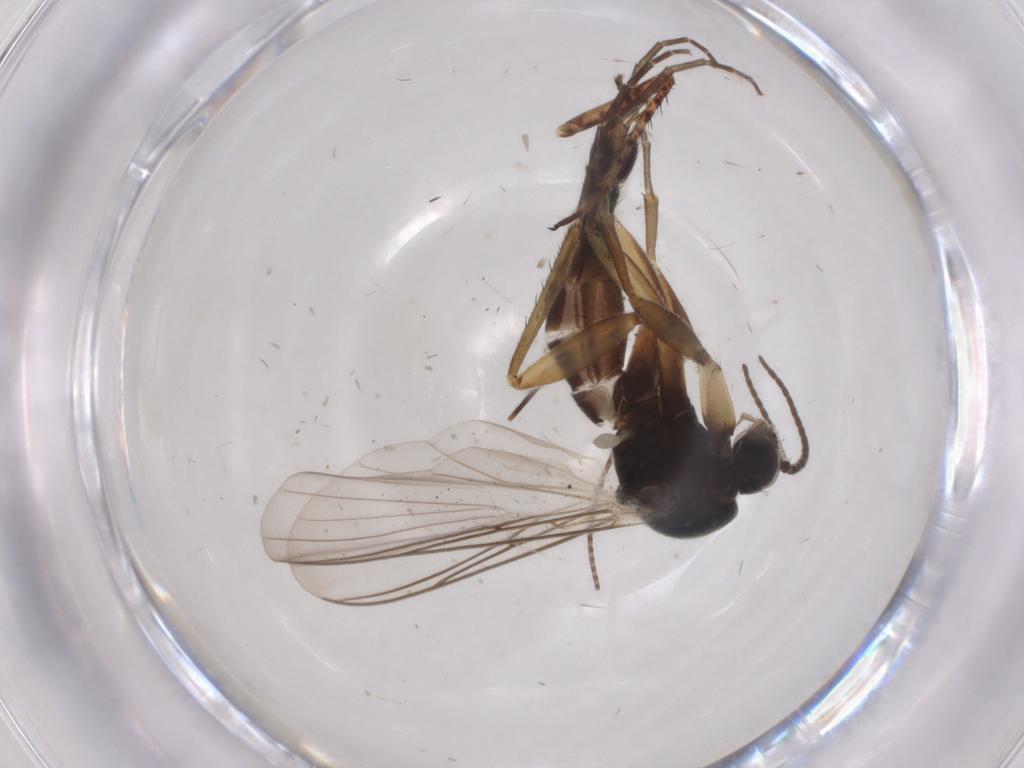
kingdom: Animalia
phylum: Arthropoda
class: Insecta
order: Diptera
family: Mycetophilidae
